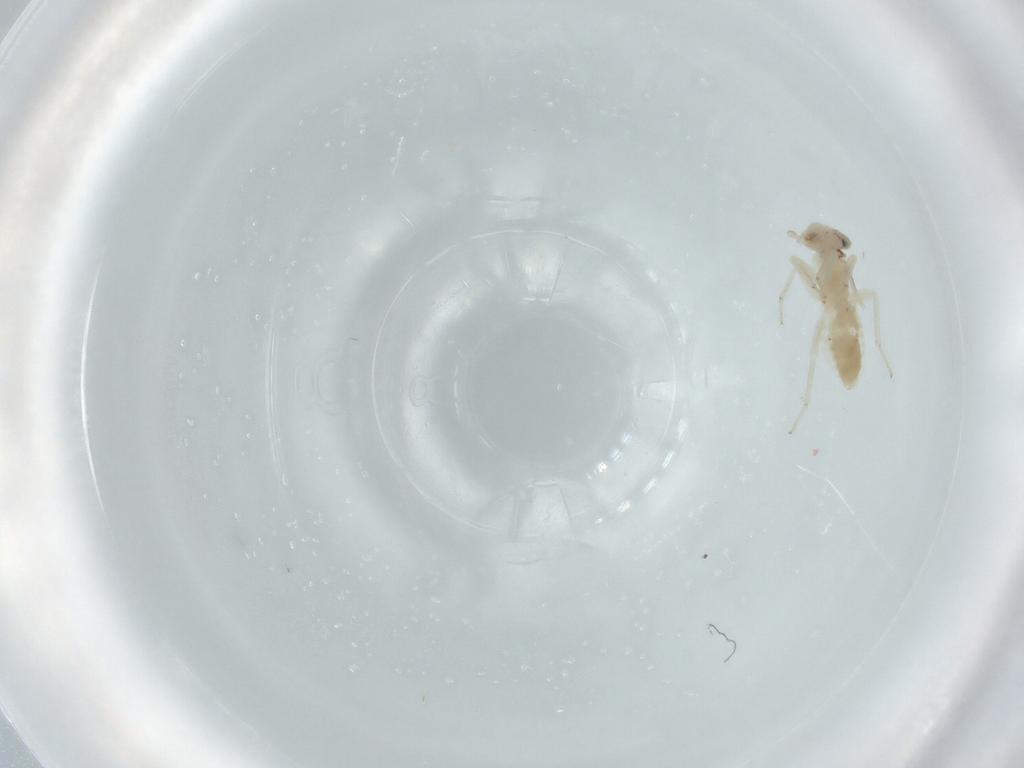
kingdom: Animalia
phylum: Arthropoda
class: Insecta
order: Psocodea
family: Lepidopsocidae
